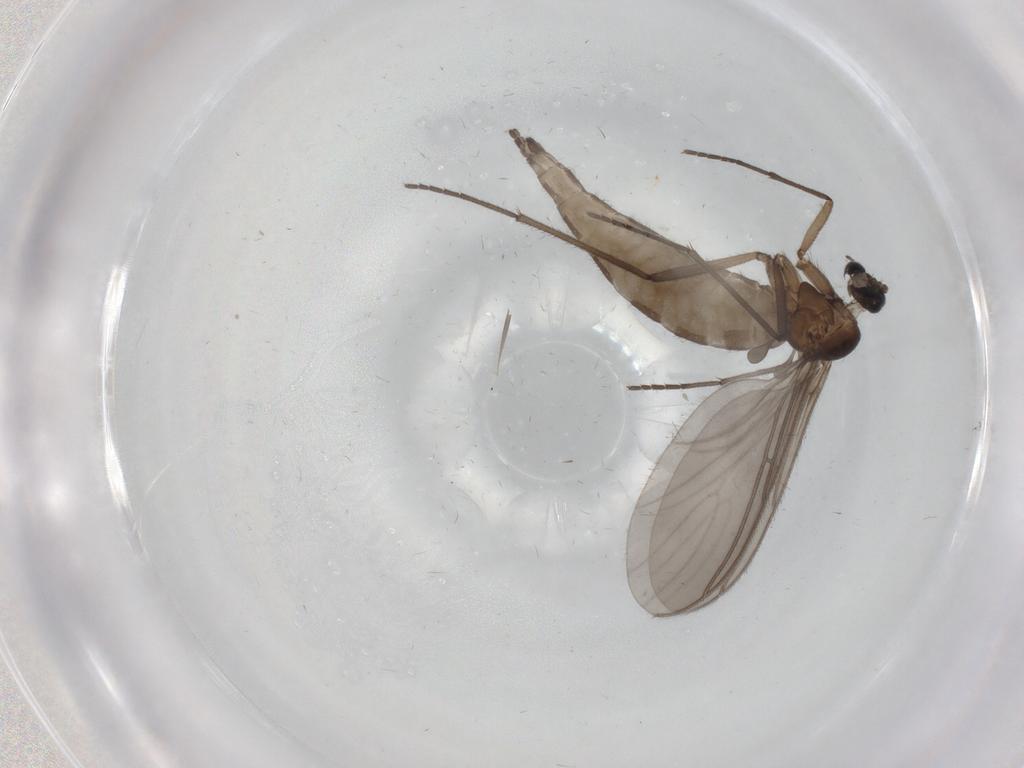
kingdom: Animalia
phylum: Arthropoda
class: Insecta
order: Diptera
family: Sciaridae
